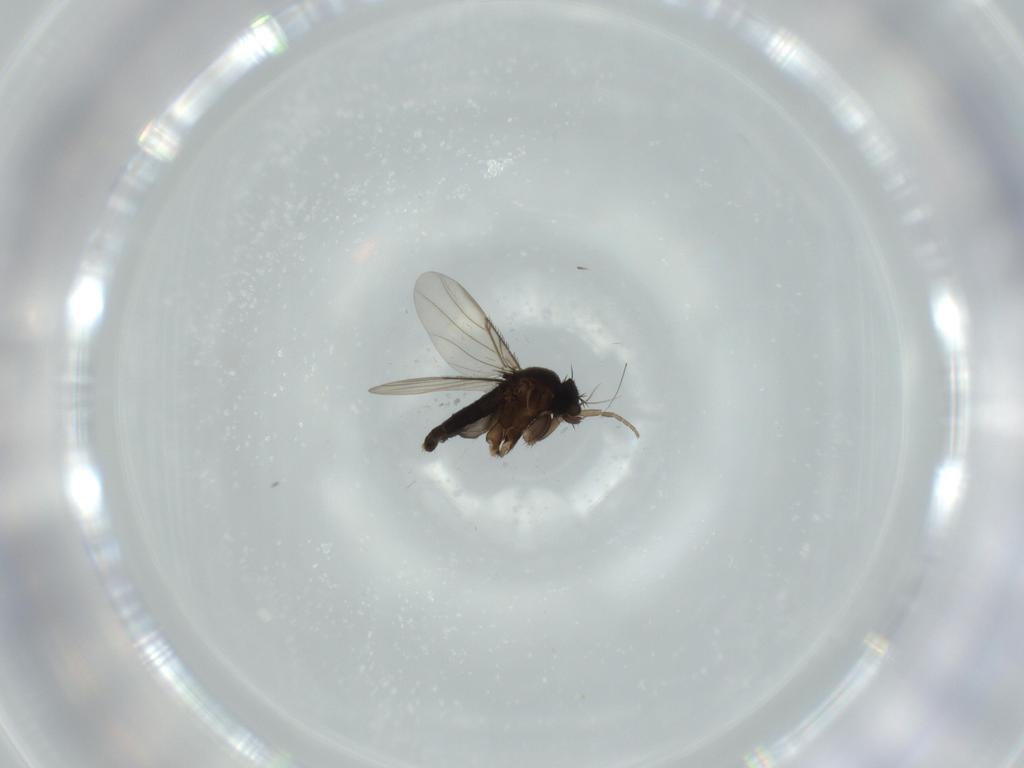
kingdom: Animalia
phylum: Arthropoda
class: Insecta
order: Diptera
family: Phoridae
